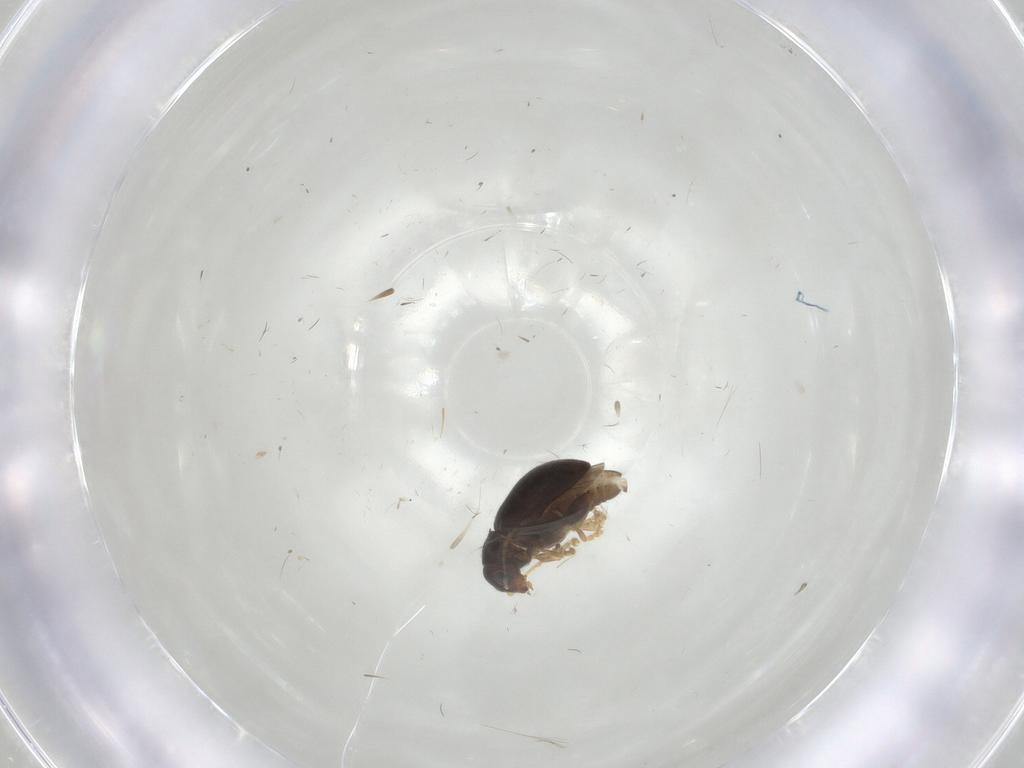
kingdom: Animalia
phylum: Arthropoda
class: Insecta
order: Coleoptera
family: Chrysomelidae
